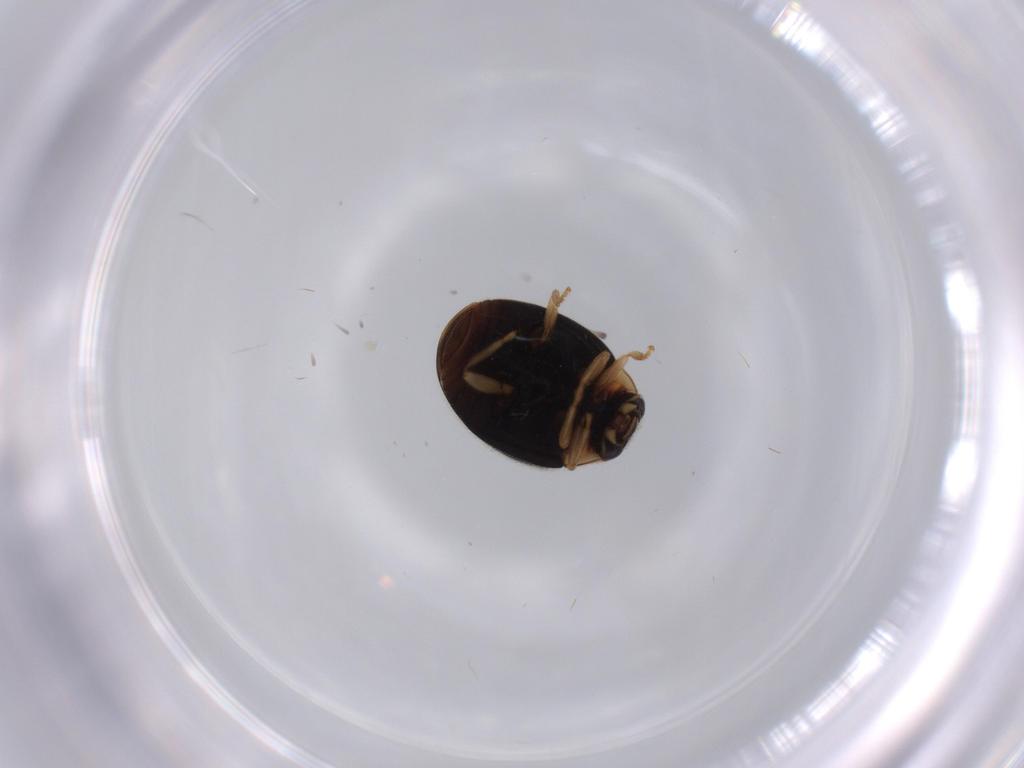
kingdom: Animalia
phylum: Arthropoda
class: Insecta
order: Coleoptera
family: Coccinellidae
